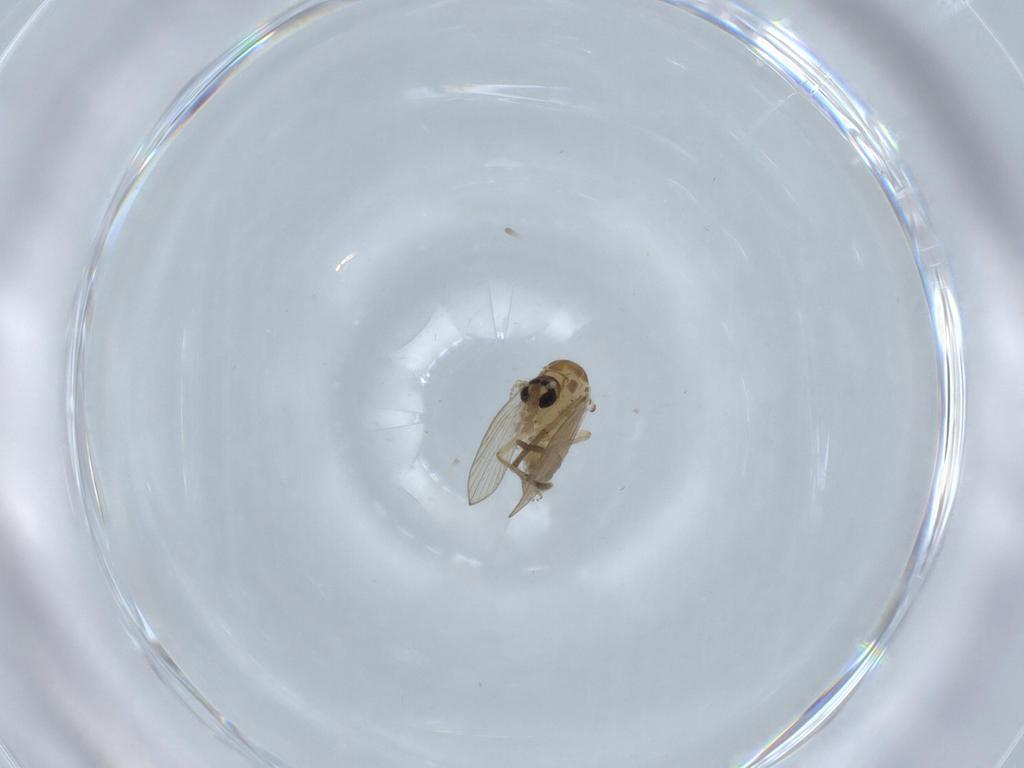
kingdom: Animalia
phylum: Arthropoda
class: Insecta
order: Diptera
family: Psychodidae
